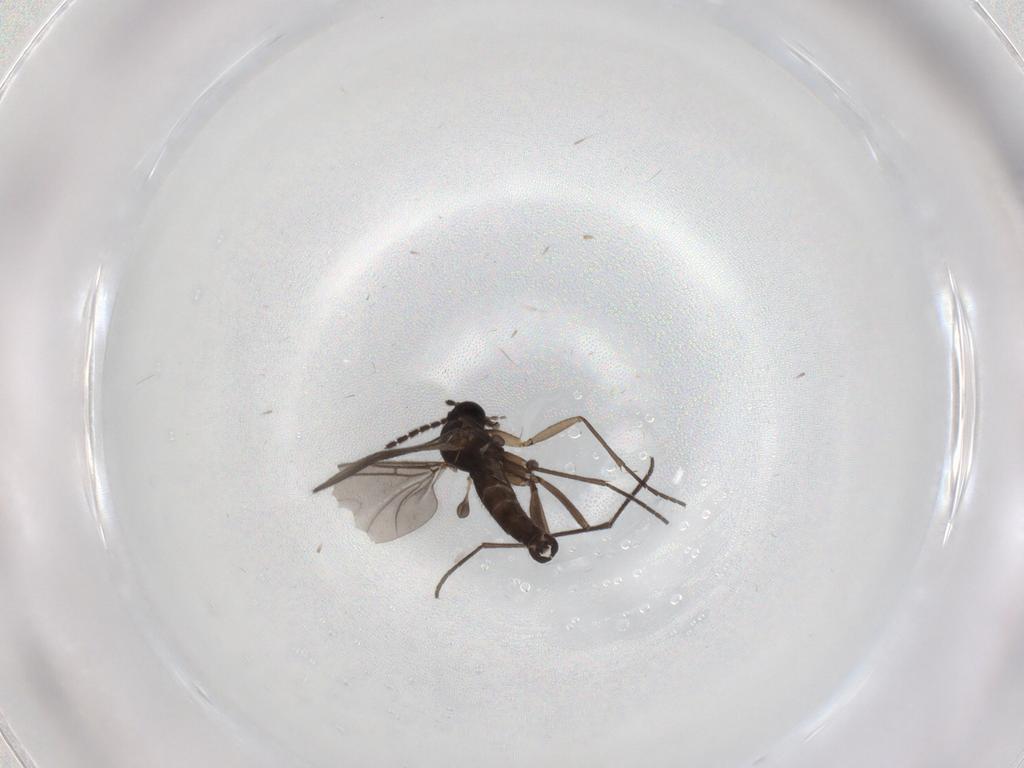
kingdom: Animalia
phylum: Arthropoda
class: Insecta
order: Diptera
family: Sciaridae
